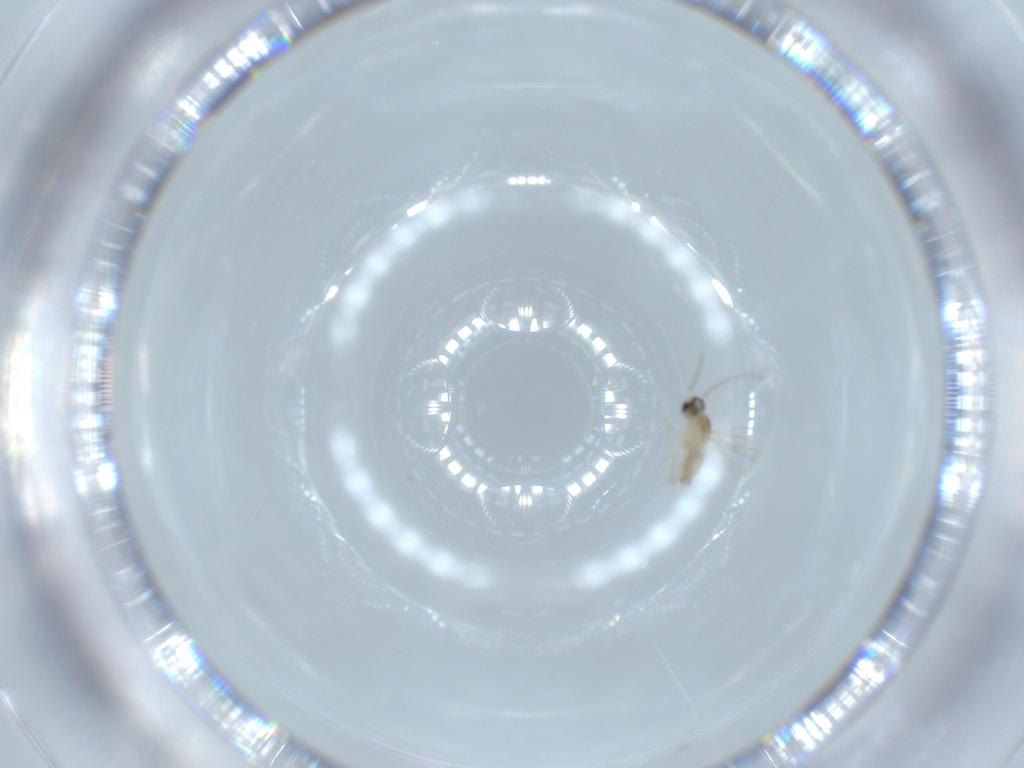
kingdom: Animalia
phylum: Arthropoda
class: Insecta
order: Diptera
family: Cecidomyiidae
